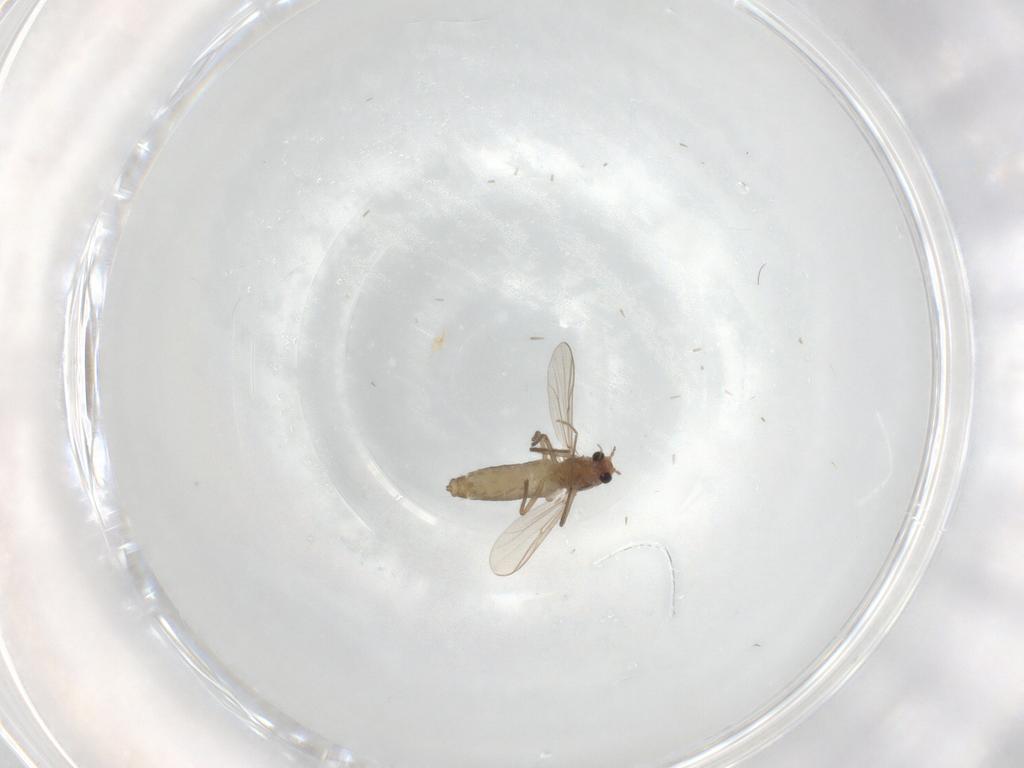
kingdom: Animalia
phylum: Arthropoda
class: Insecta
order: Diptera
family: Chironomidae
